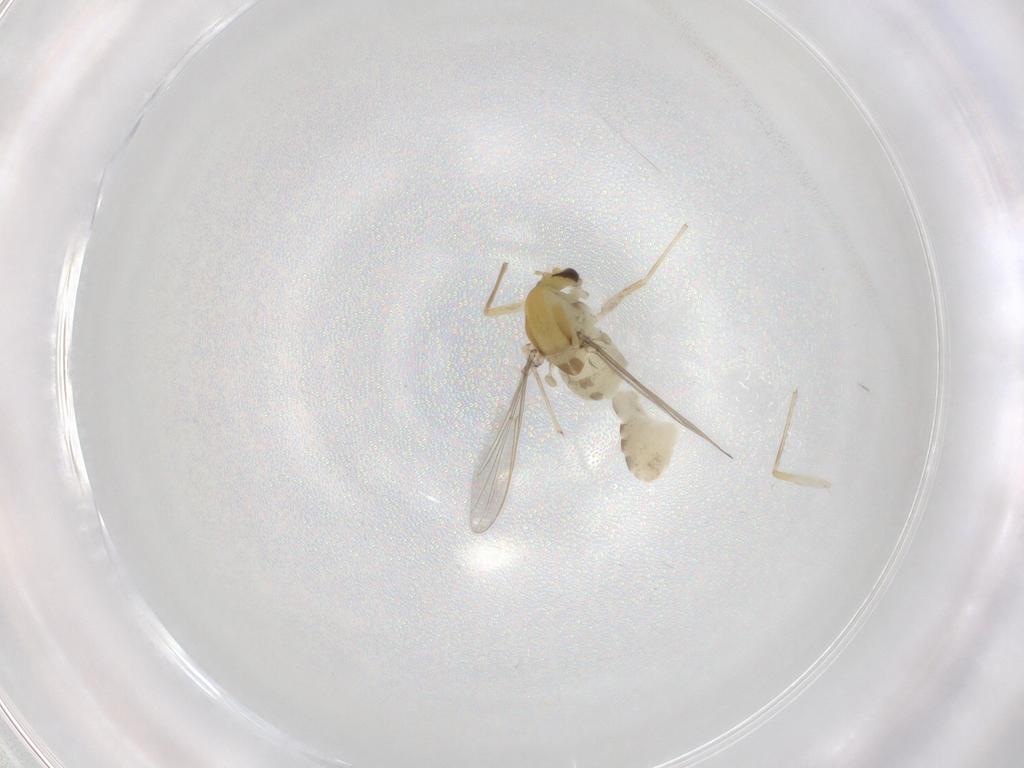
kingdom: Animalia
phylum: Arthropoda
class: Insecta
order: Diptera
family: Chironomidae
